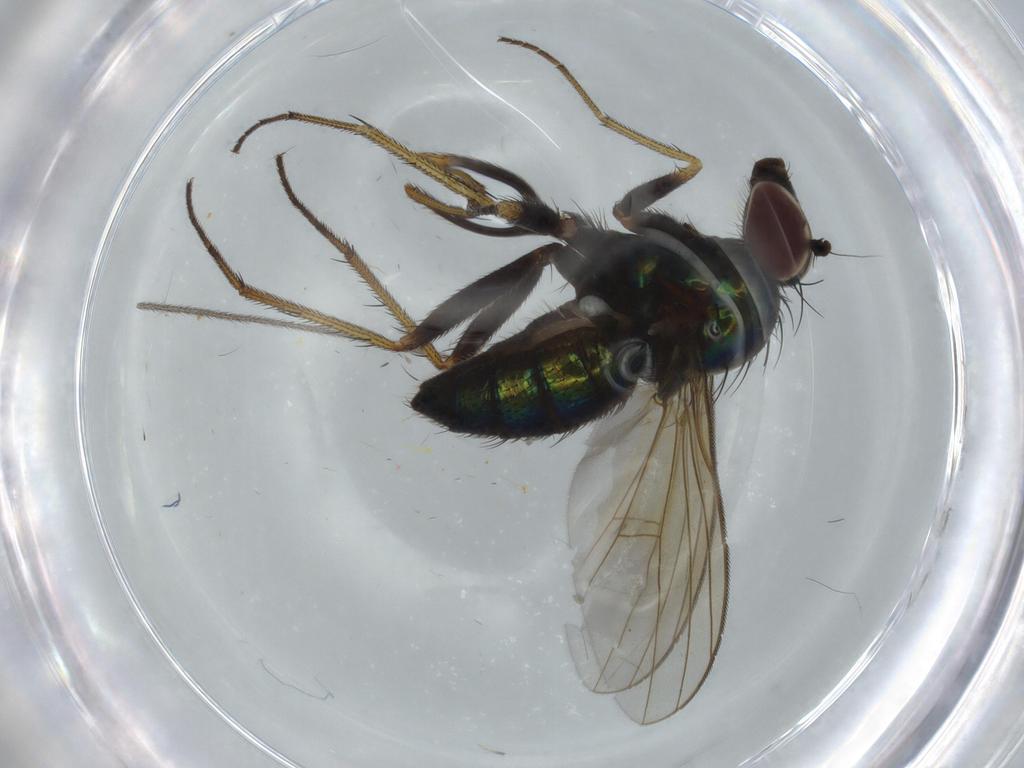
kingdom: Animalia
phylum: Arthropoda
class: Insecta
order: Diptera
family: Dolichopodidae
